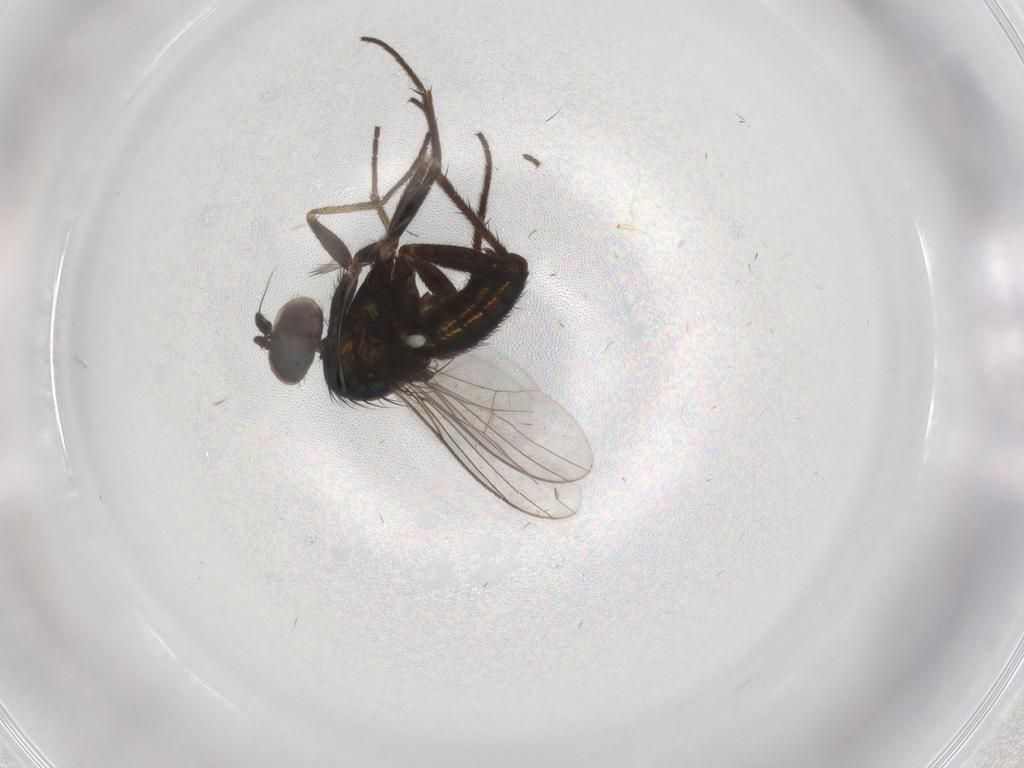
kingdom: Animalia
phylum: Arthropoda
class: Insecta
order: Diptera
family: Dolichopodidae
